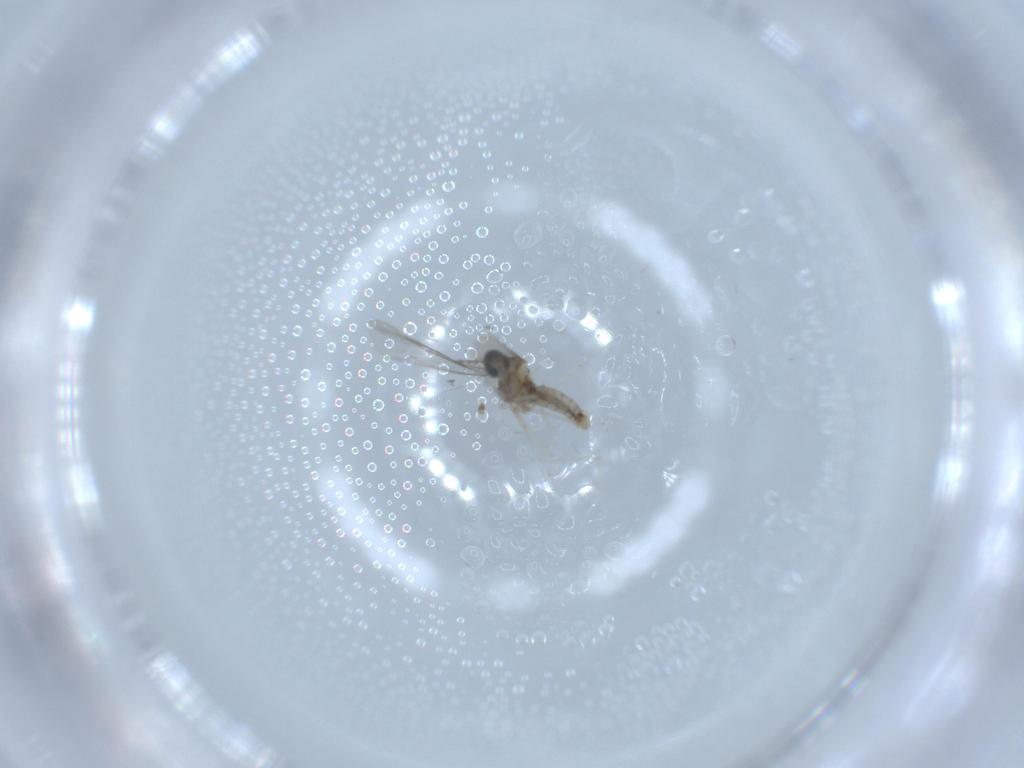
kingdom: Animalia
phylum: Arthropoda
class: Insecta
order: Diptera
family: Cecidomyiidae
